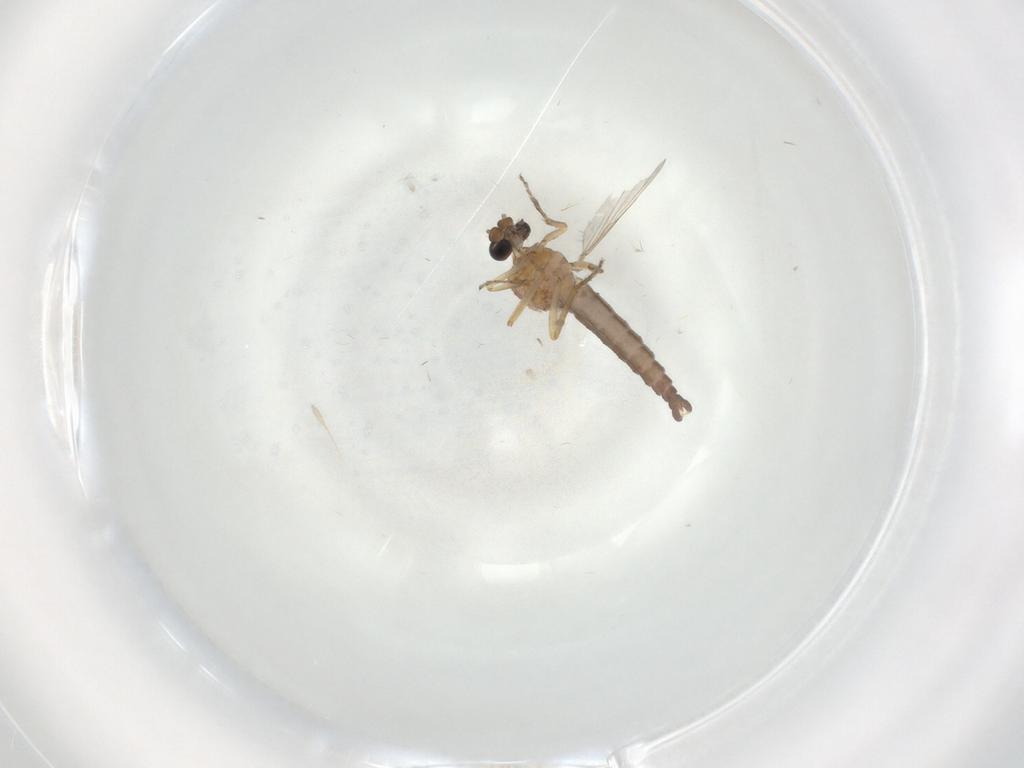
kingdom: Animalia
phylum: Arthropoda
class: Insecta
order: Diptera
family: Ceratopogonidae
